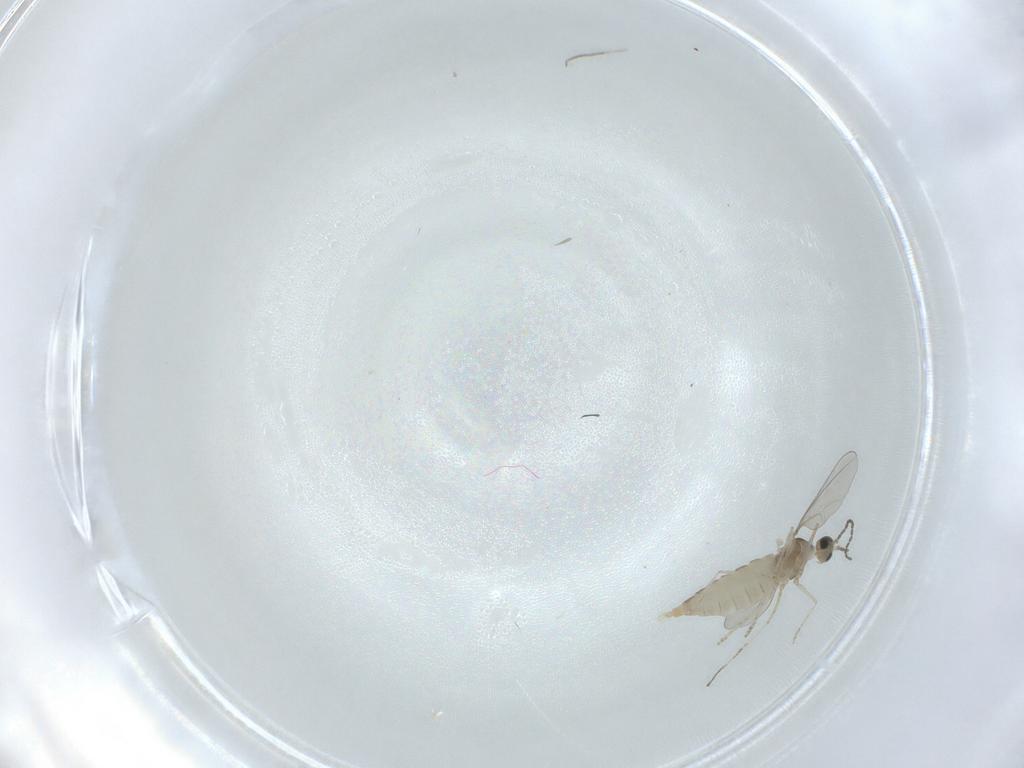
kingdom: Animalia
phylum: Arthropoda
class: Insecta
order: Diptera
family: Cecidomyiidae
